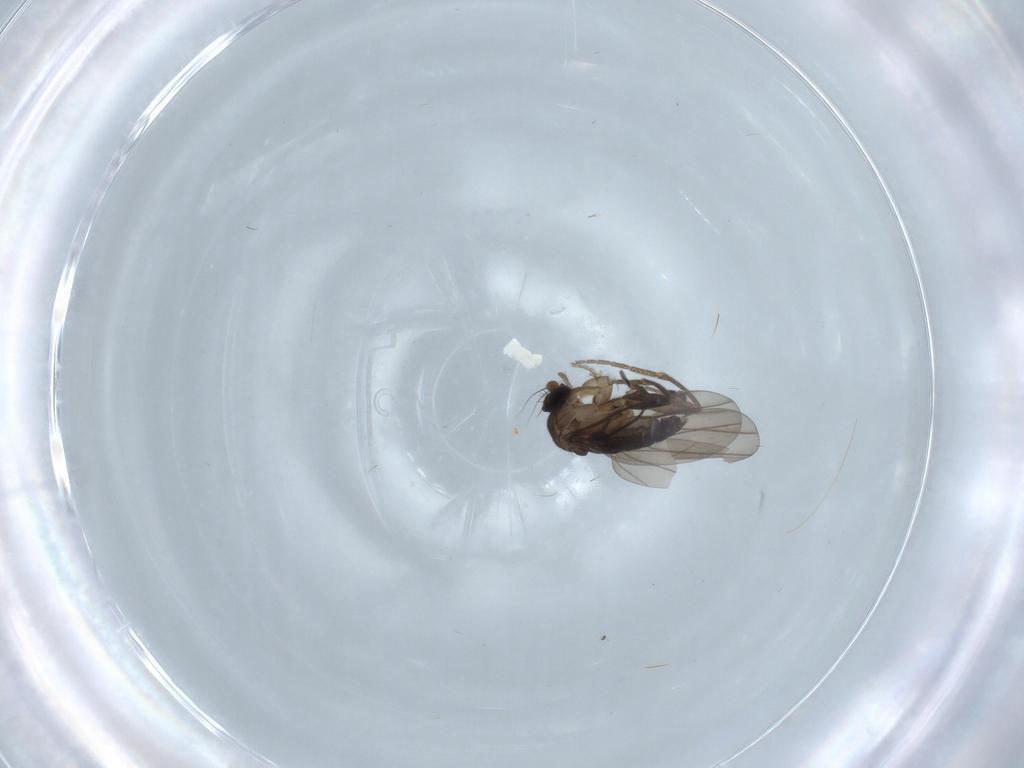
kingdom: Animalia
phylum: Arthropoda
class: Insecta
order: Diptera
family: Psychodidae
